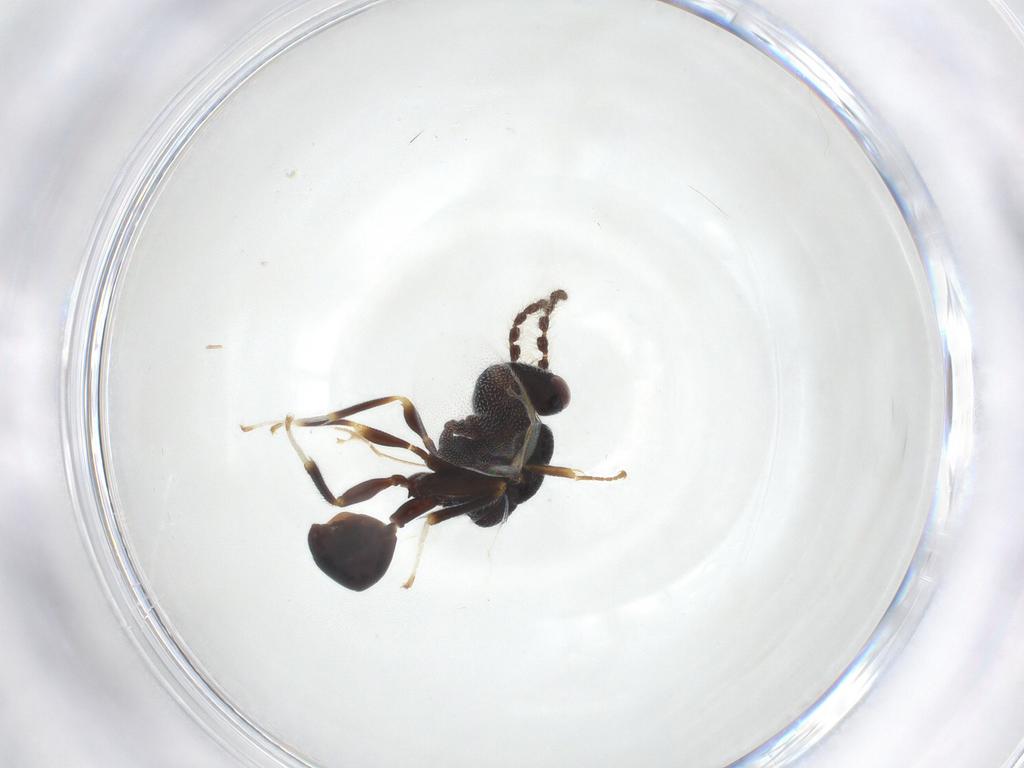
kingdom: Animalia
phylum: Arthropoda
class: Insecta
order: Hymenoptera
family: Eurytomidae
